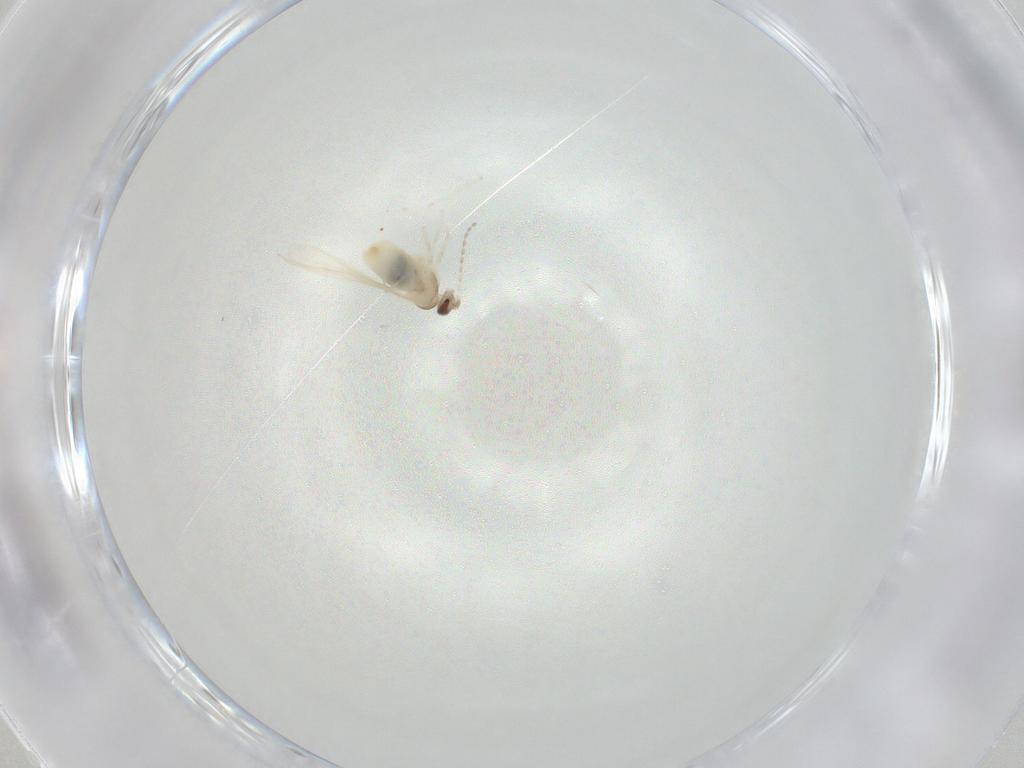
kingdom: Animalia
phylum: Arthropoda
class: Insecta
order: Diptera
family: Cecidomyiidae
